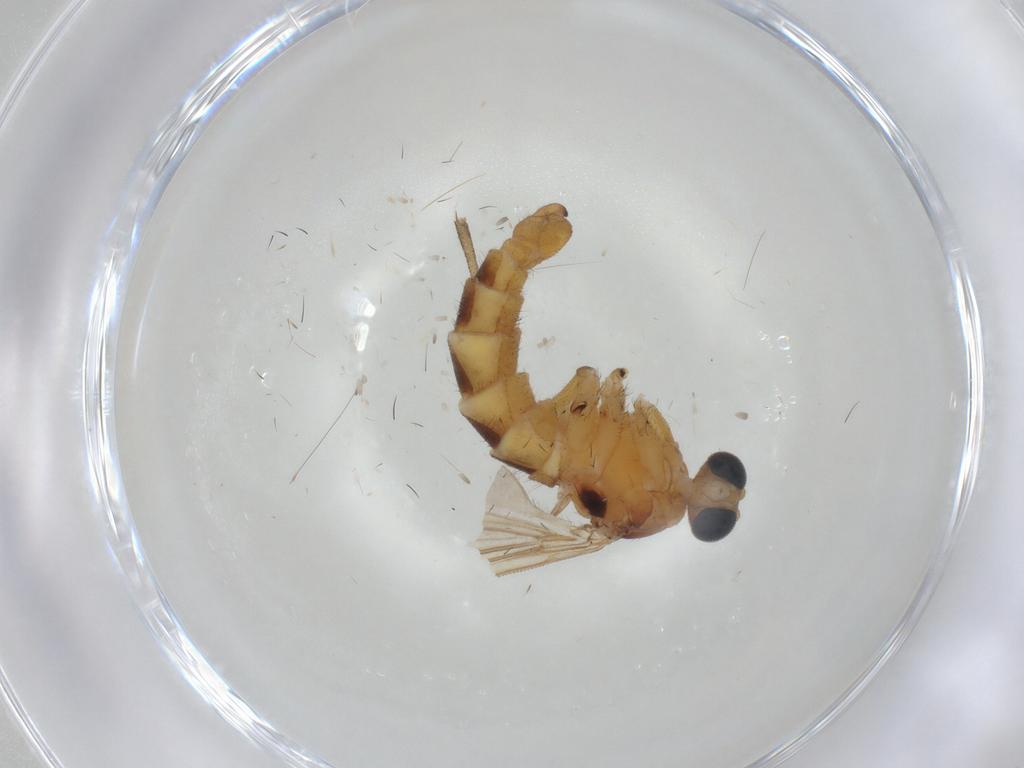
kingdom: Animalia
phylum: Arthropoda
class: Insecta
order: Diptera
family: Sciaridae
